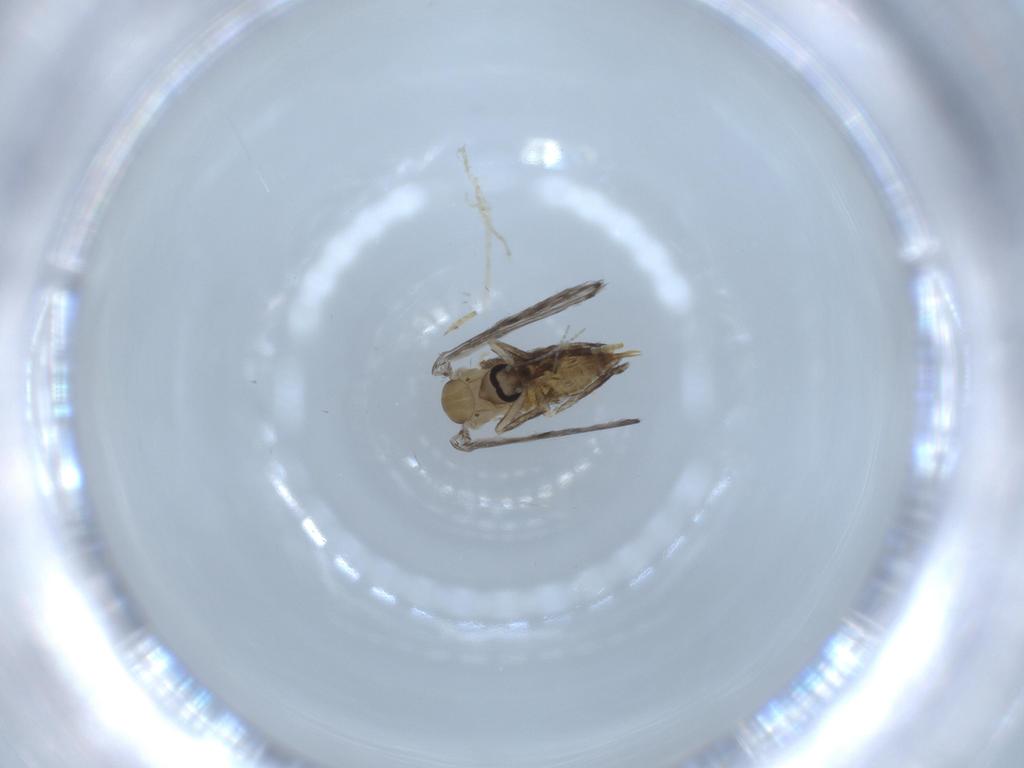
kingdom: Animalia
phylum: Arthropoda
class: Insecta
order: Diptera
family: Psychodidae
